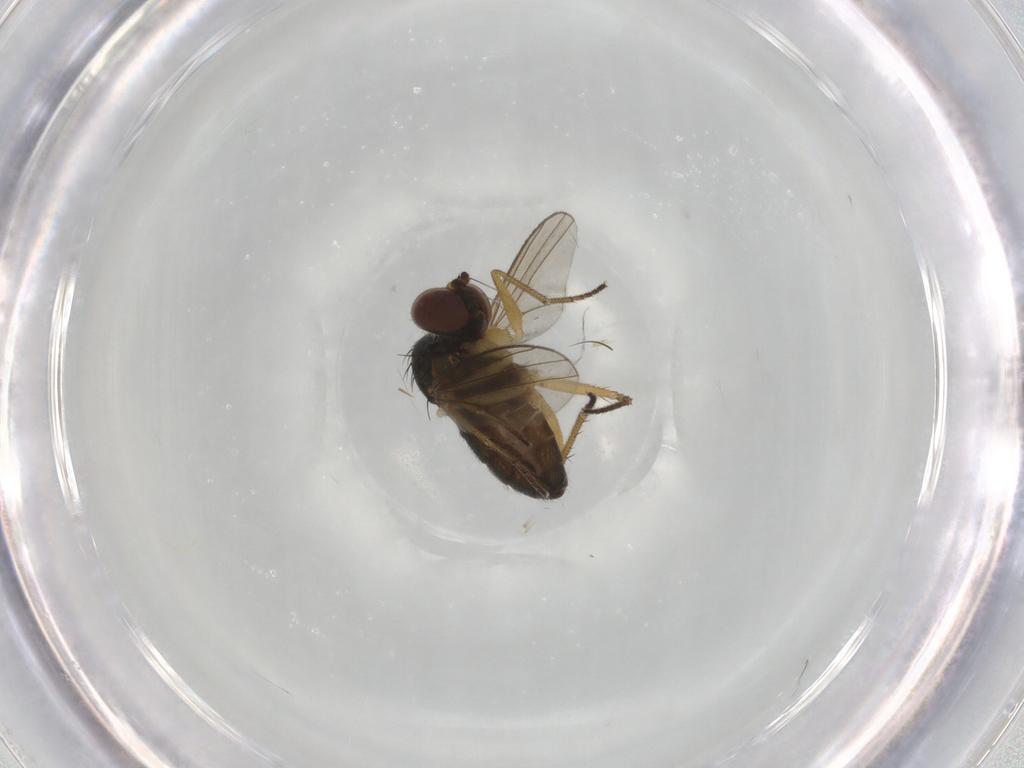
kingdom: Animalia
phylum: Arthropoda
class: Insecta
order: Diptera
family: Dolichopodidae
